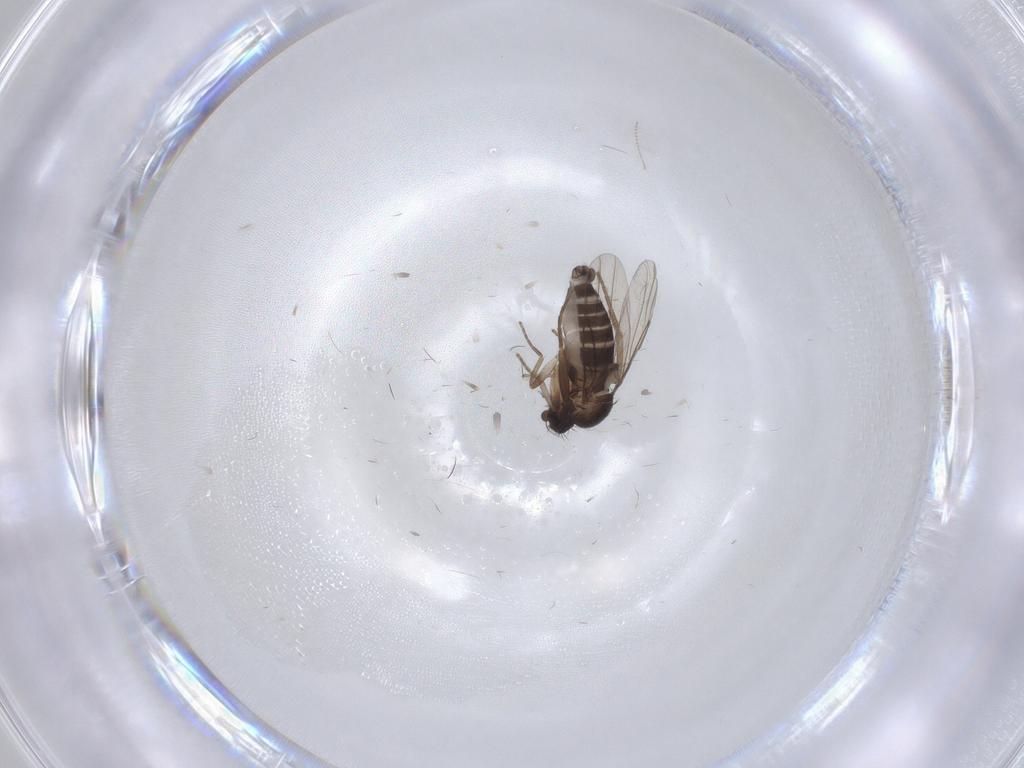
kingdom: Animalia
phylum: Arthropoda
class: Insecta
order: Diptera
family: Phoridae
